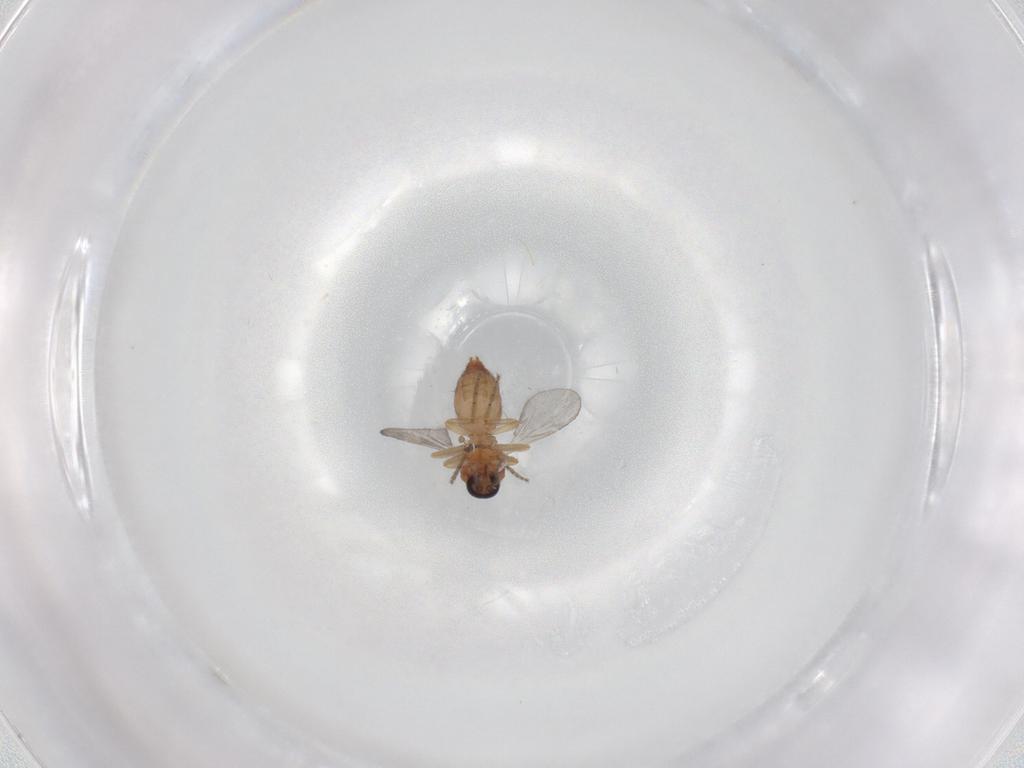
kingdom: Animalia
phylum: Arthropoda
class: Insecta
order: Diptera
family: Ceratopogonidae
